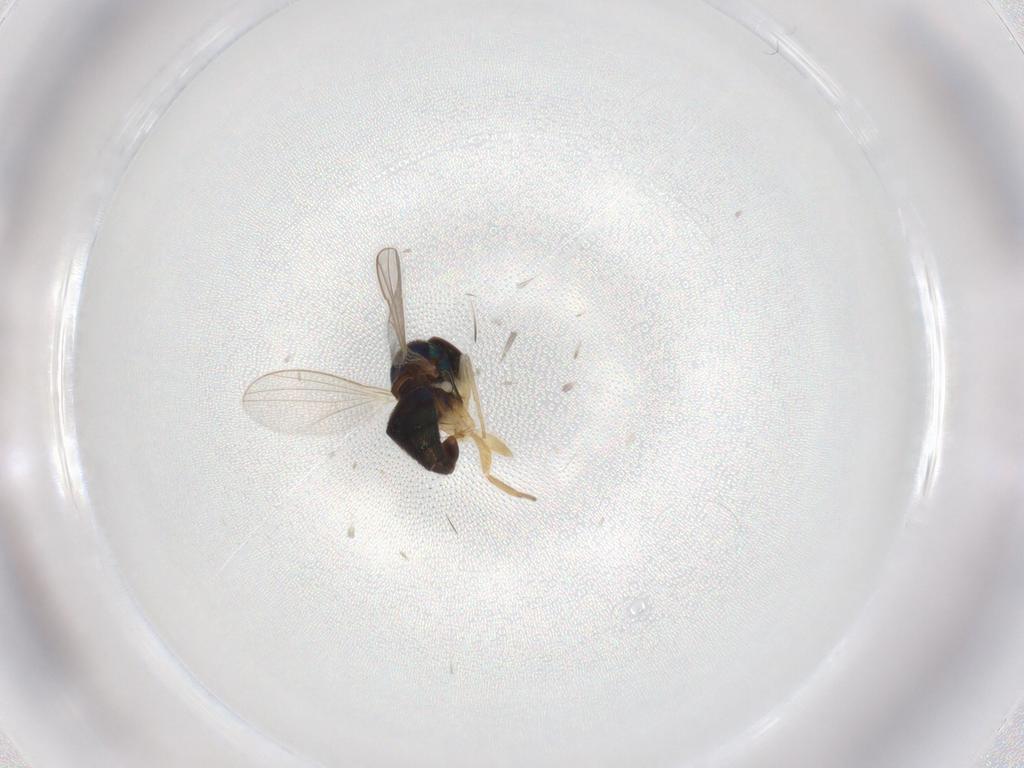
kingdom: Animalia
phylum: Arthropoda
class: Insecta
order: Diptera
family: Dolichopodidae
